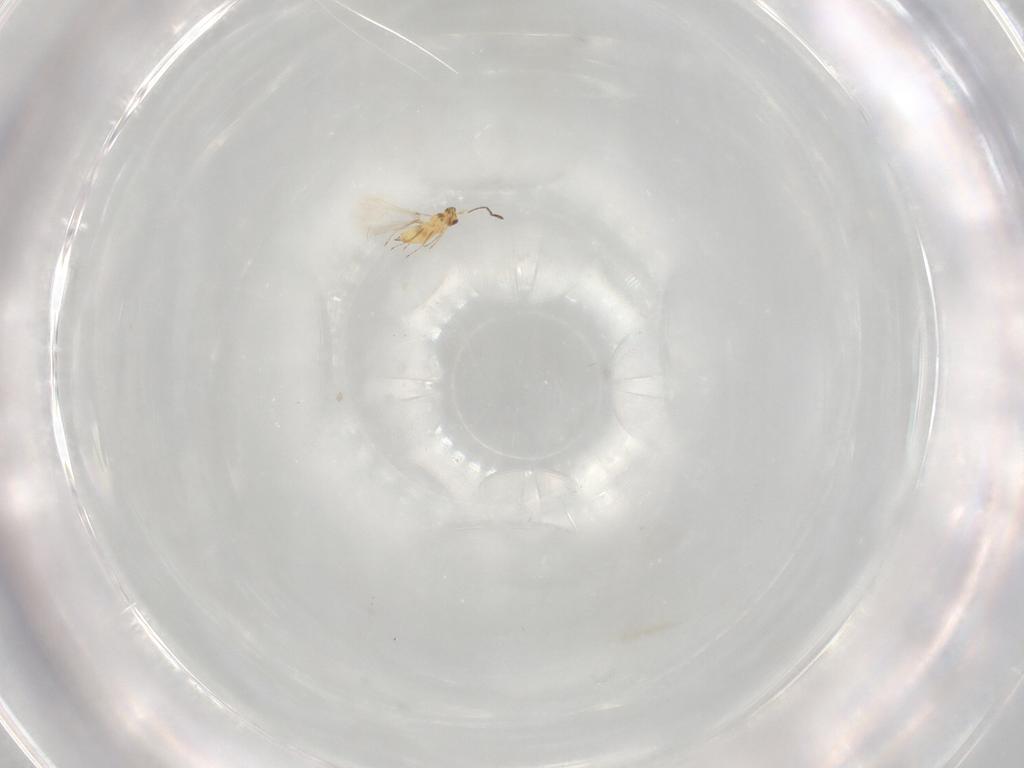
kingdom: Animalia
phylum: Arthropoda
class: Insecta
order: Hymenoptera
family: Mymaridae
